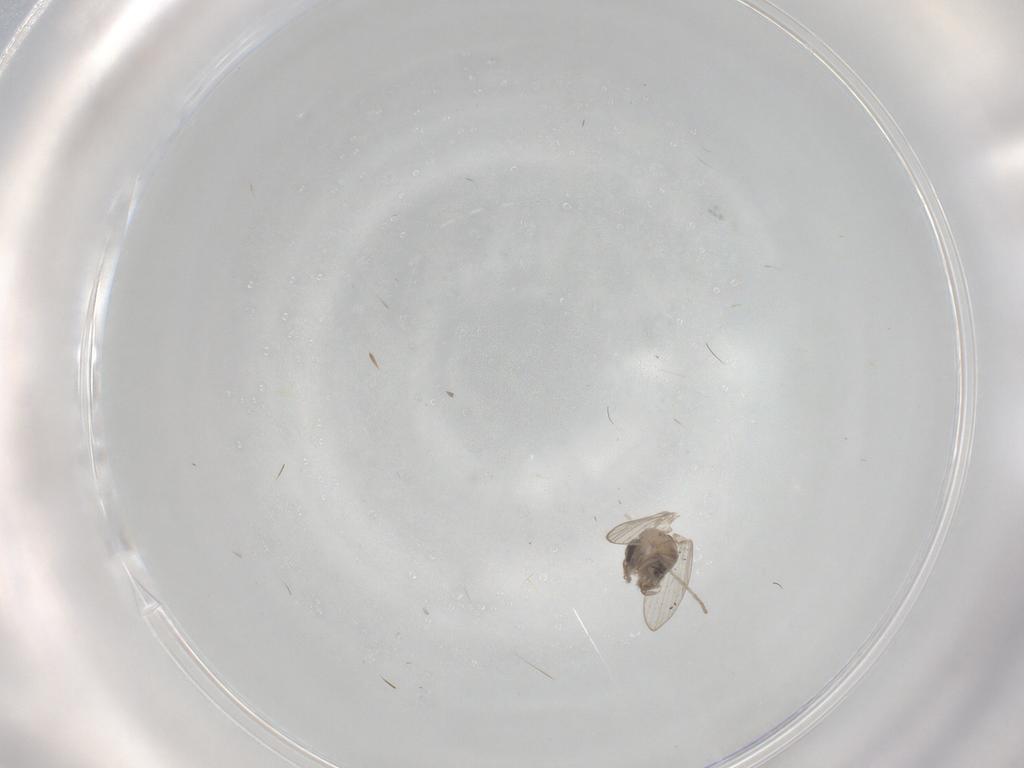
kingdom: Animalia
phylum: Arthropoda
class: Insecta
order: Diptera
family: Psychodidae
